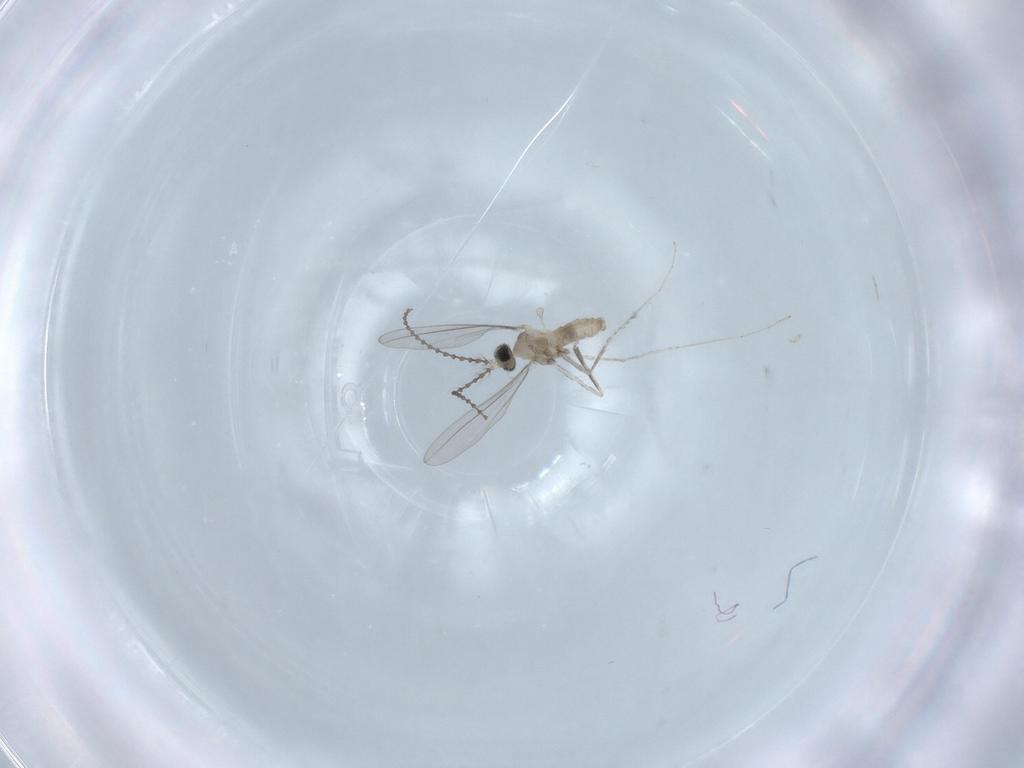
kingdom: Animalia
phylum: Arthropoda
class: Insecta
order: Diptera
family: Cecidomyiidae
